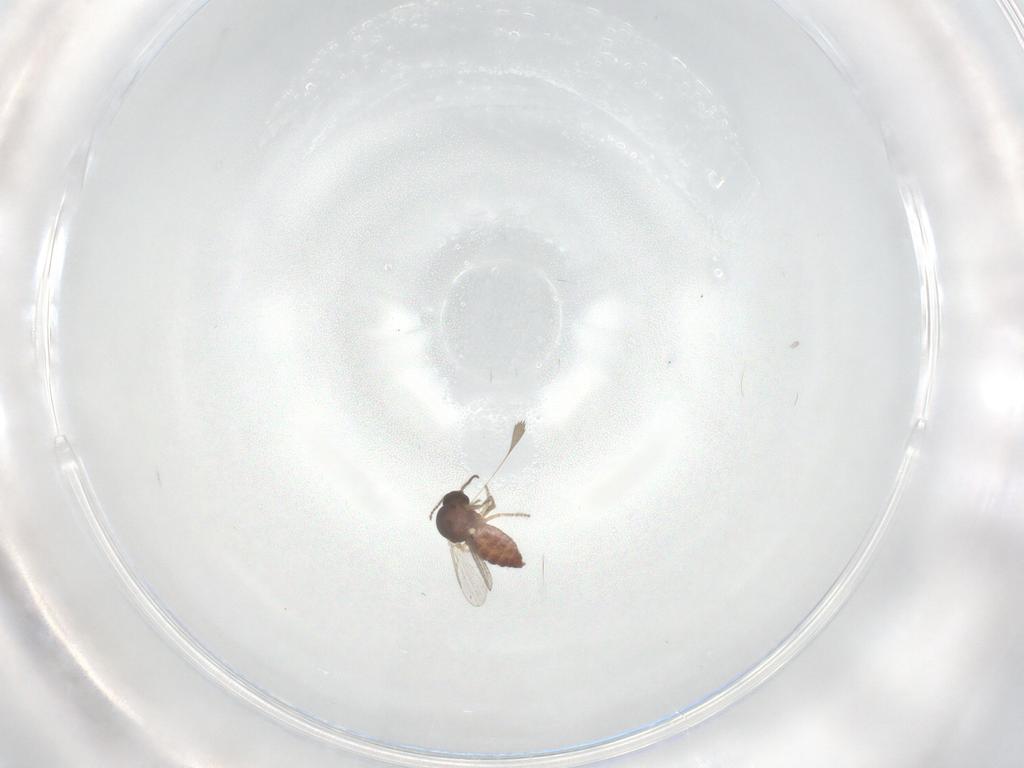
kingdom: Animalia
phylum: Arthropoda
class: Insecta
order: Diptera
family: Ceratopogonidae
